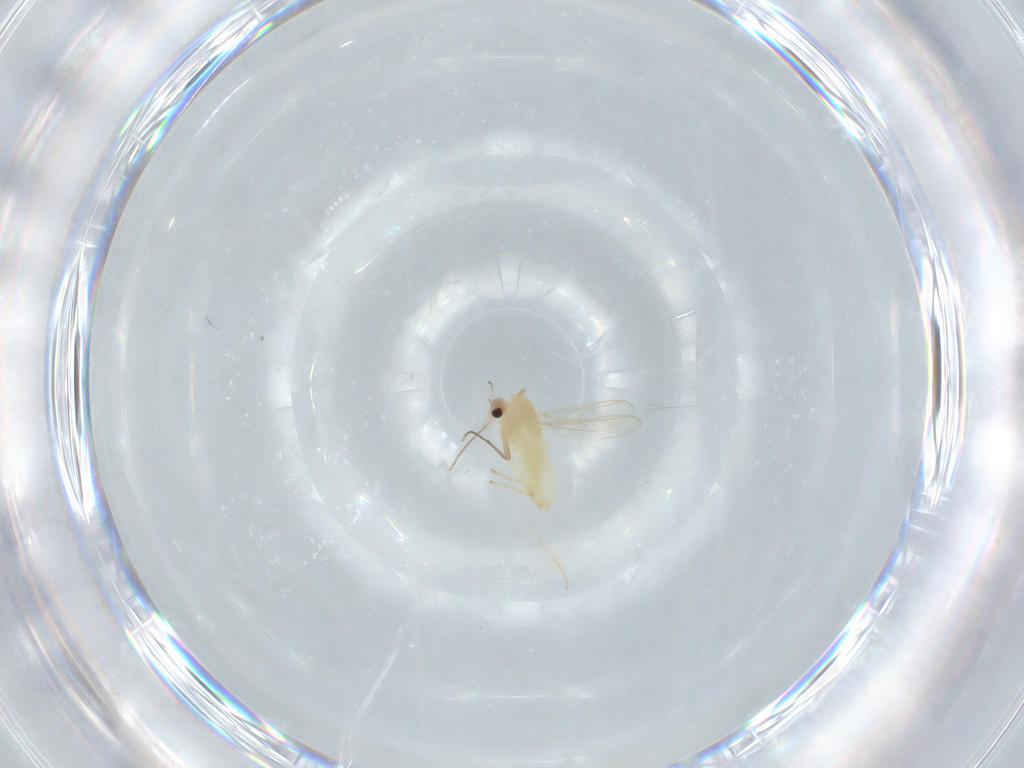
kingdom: Animalia
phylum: Arthropoda
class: Insecta
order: Diptera
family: Chironomidae
